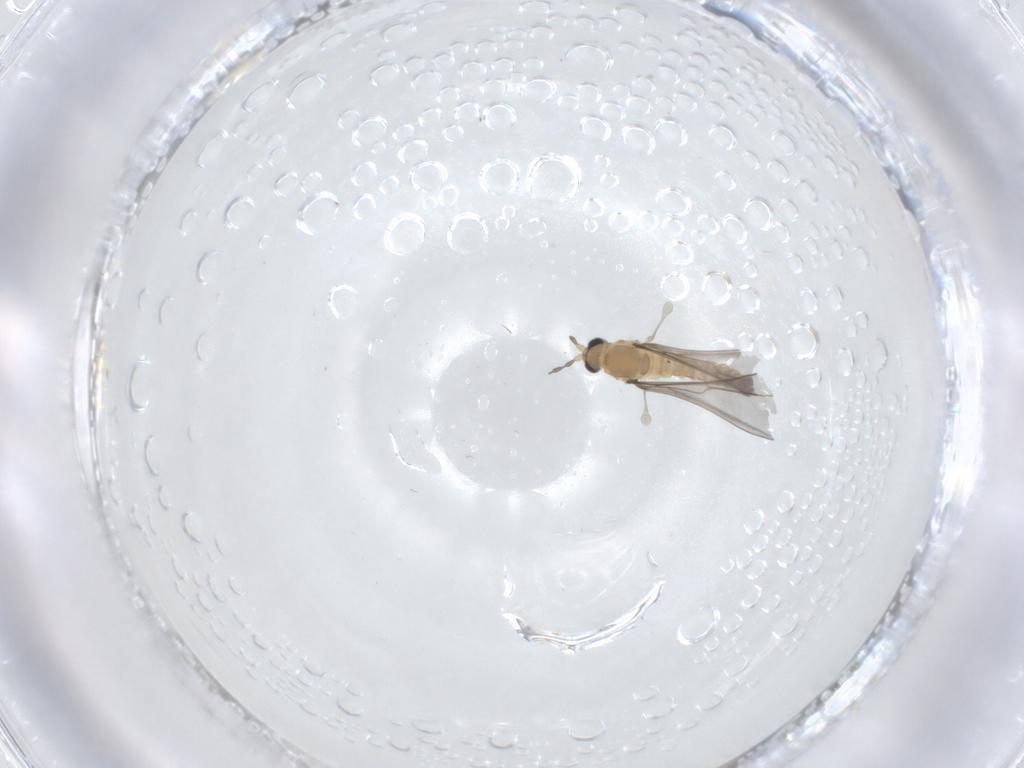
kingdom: Animalia
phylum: Arthropoda
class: Insecta
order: Diptera
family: Cecidomyiidae
